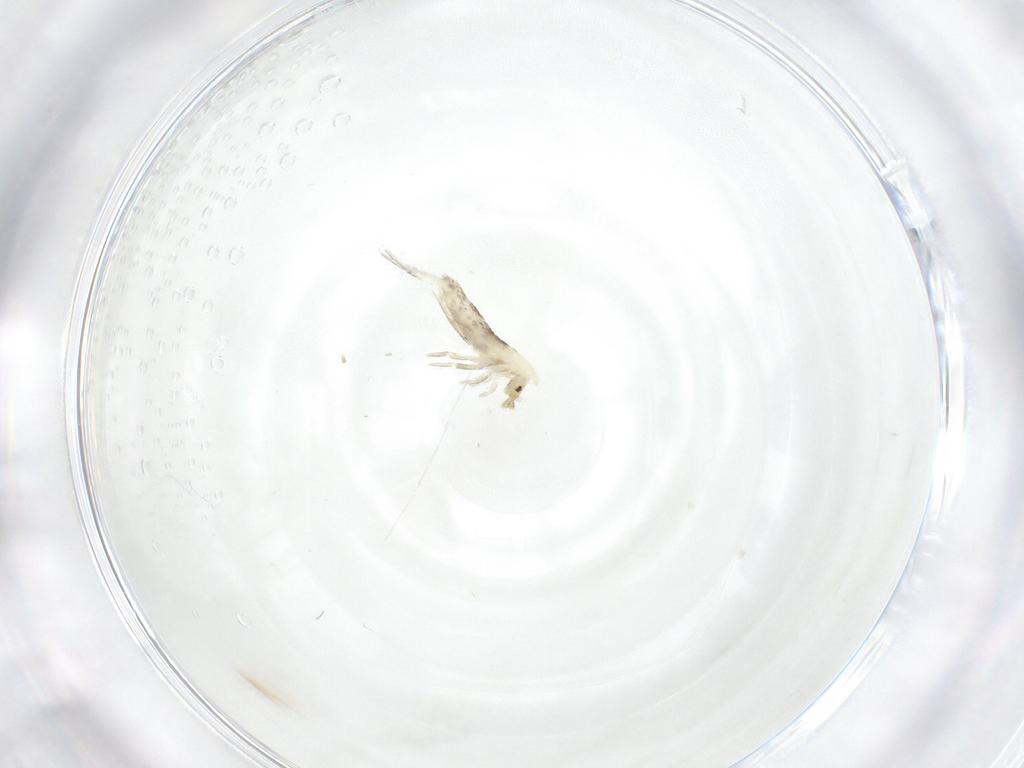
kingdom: Animalia
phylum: Arthropoda
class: Collembola
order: Entomobryomorpha
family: Entomobryidae
